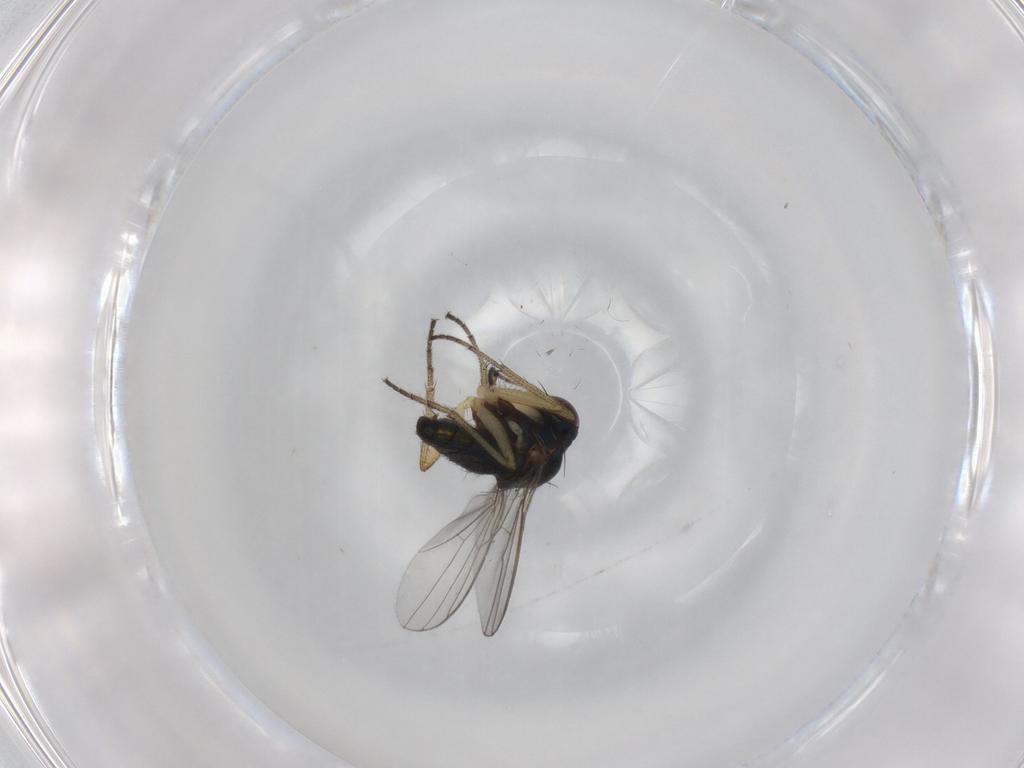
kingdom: Animalia
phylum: Arthropoda
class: Insecta
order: Diptera
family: Dolichopodidae
